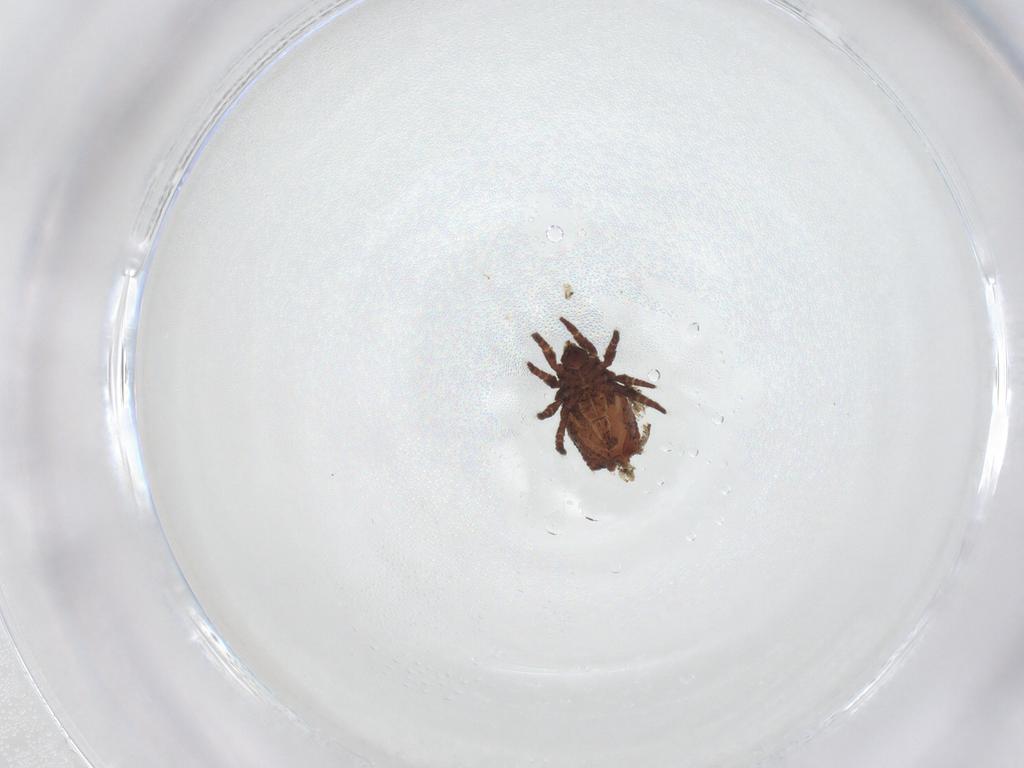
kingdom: Animalia
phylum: Arthropoda
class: Arachnida
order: Sarcoptiformes
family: Crotoniidae
